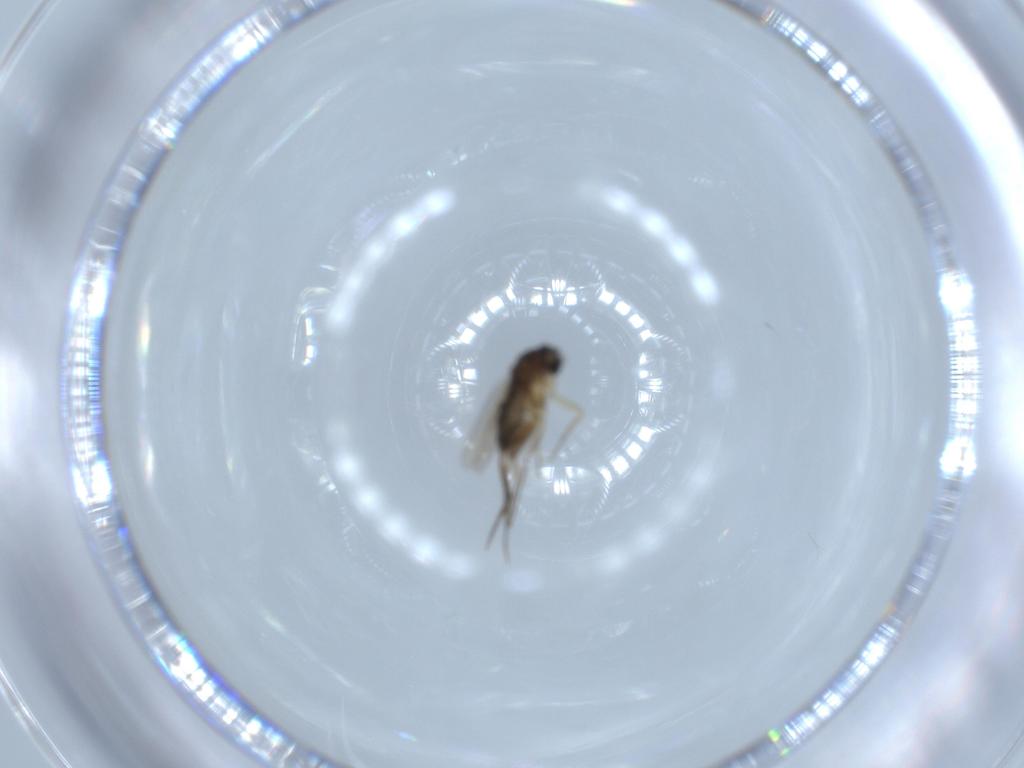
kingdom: Animalia
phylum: Arthropoda
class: Insecta
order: Diptera
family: Phoridae
